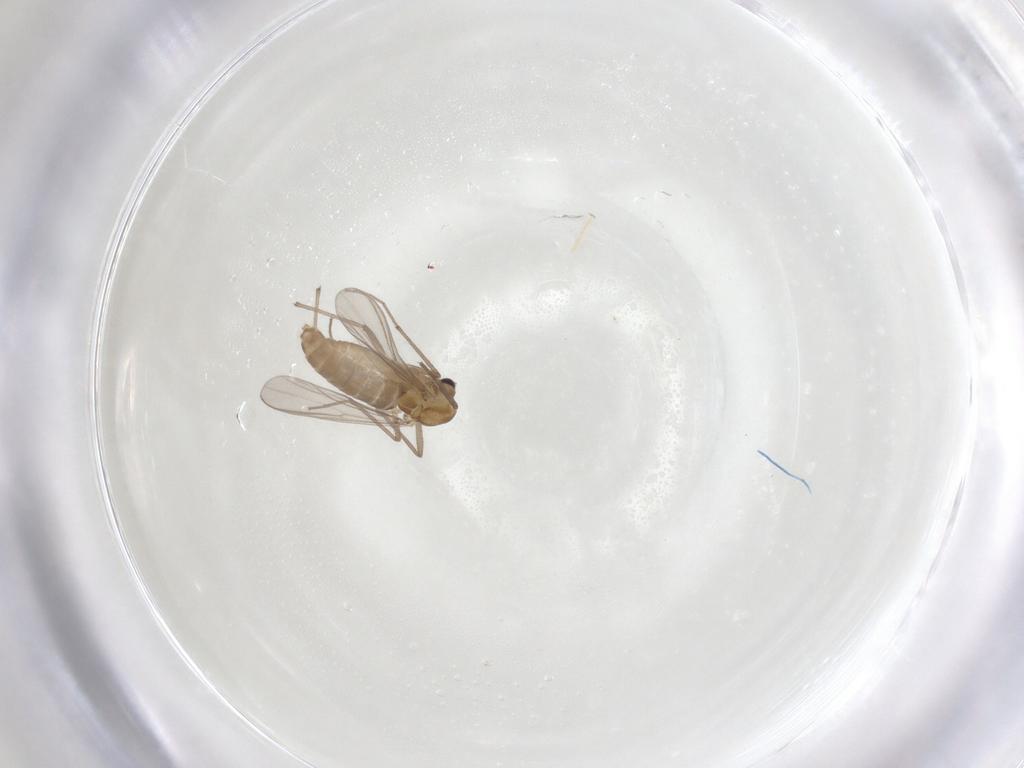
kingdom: Animalia
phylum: Arthropoda
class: Insecta
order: Diptera
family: Chironomidae
